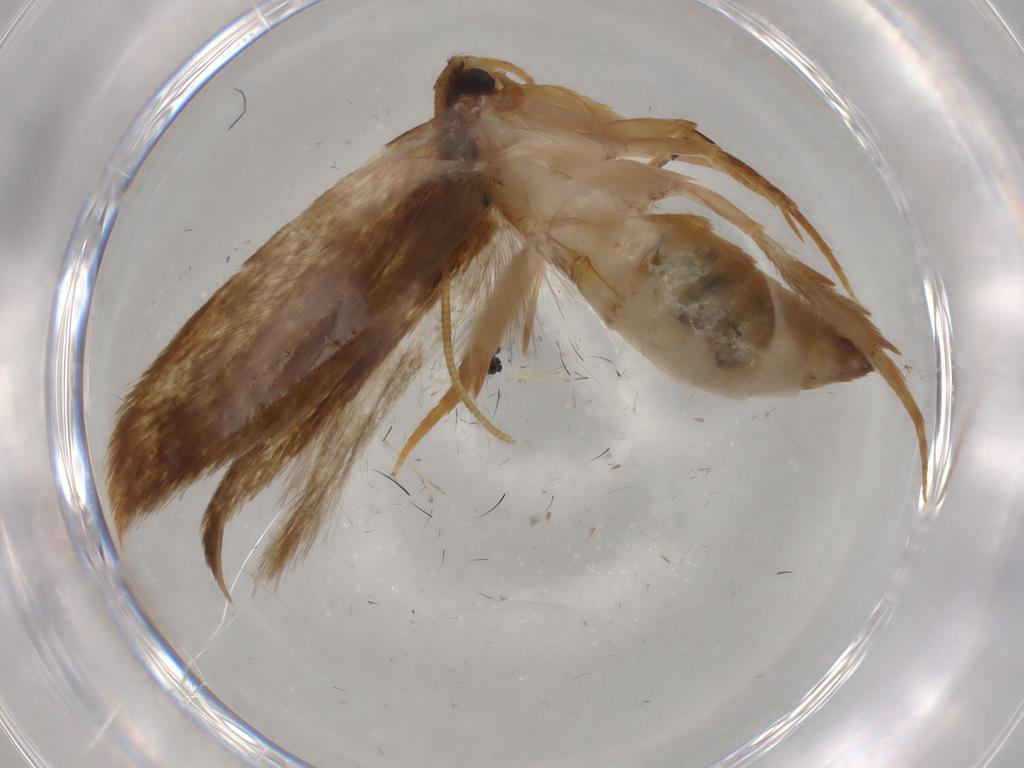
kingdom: Animalia
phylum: Arthropoda
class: Insecta
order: Lepidoptera
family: Tineidae
